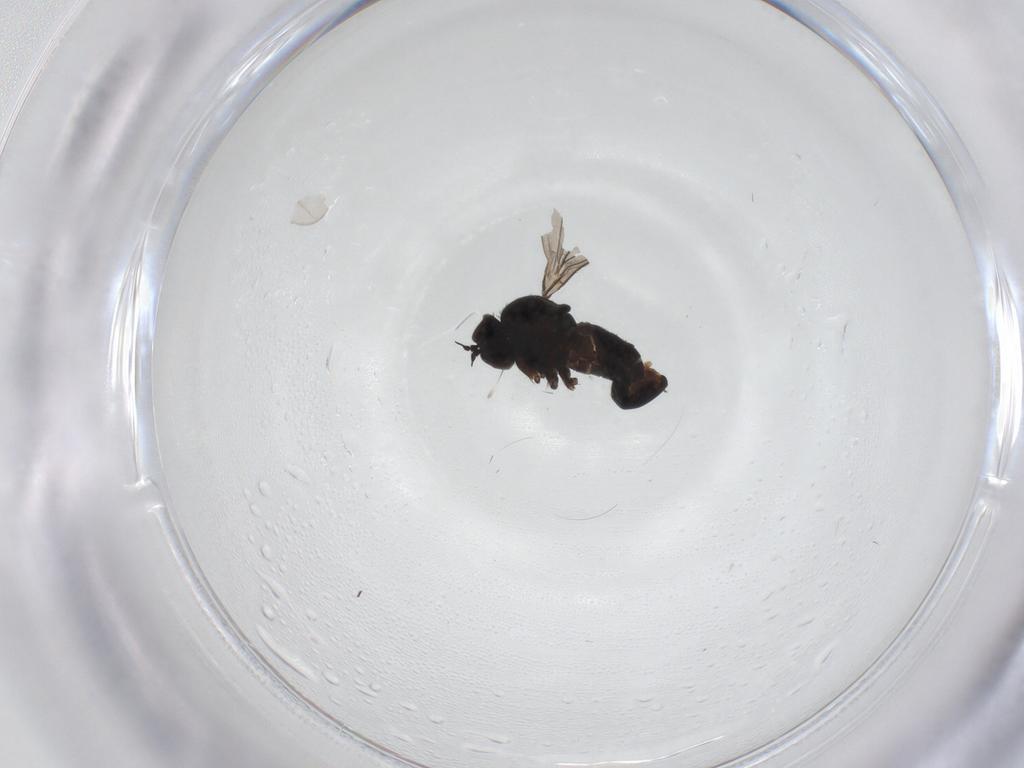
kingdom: Animalia
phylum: Arthropoda
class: Insecta
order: Diptera
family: Dolichopodidae
